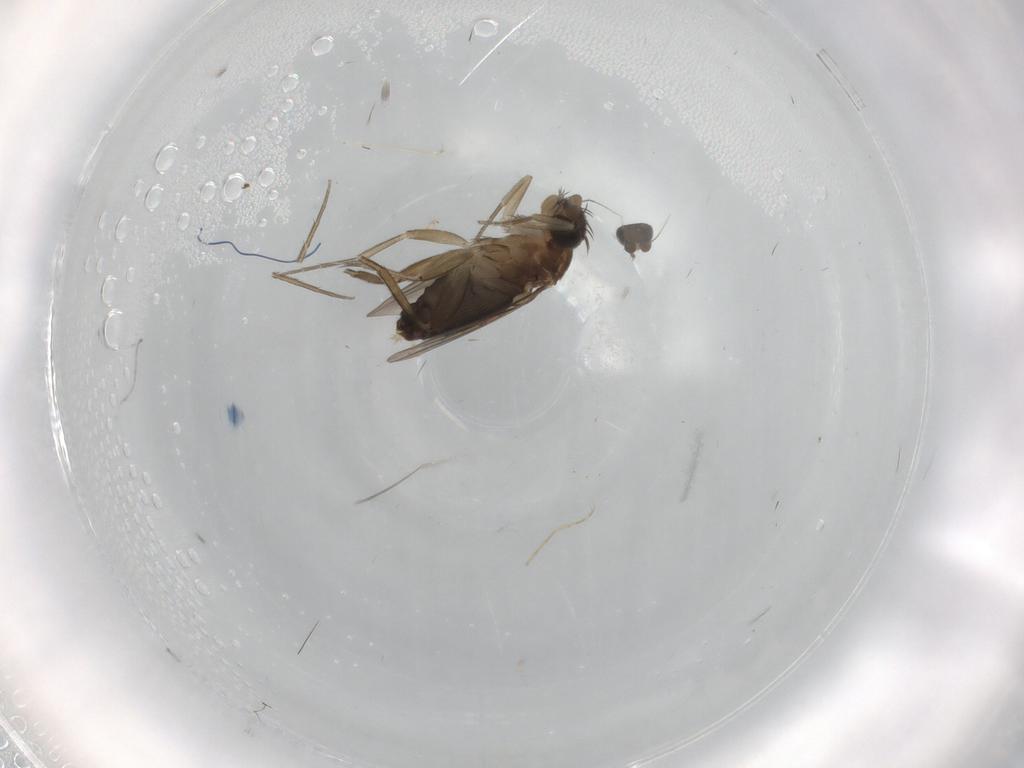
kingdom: Animalia
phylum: Arthropoda
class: Insecta
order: Diptera
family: Phoridae
